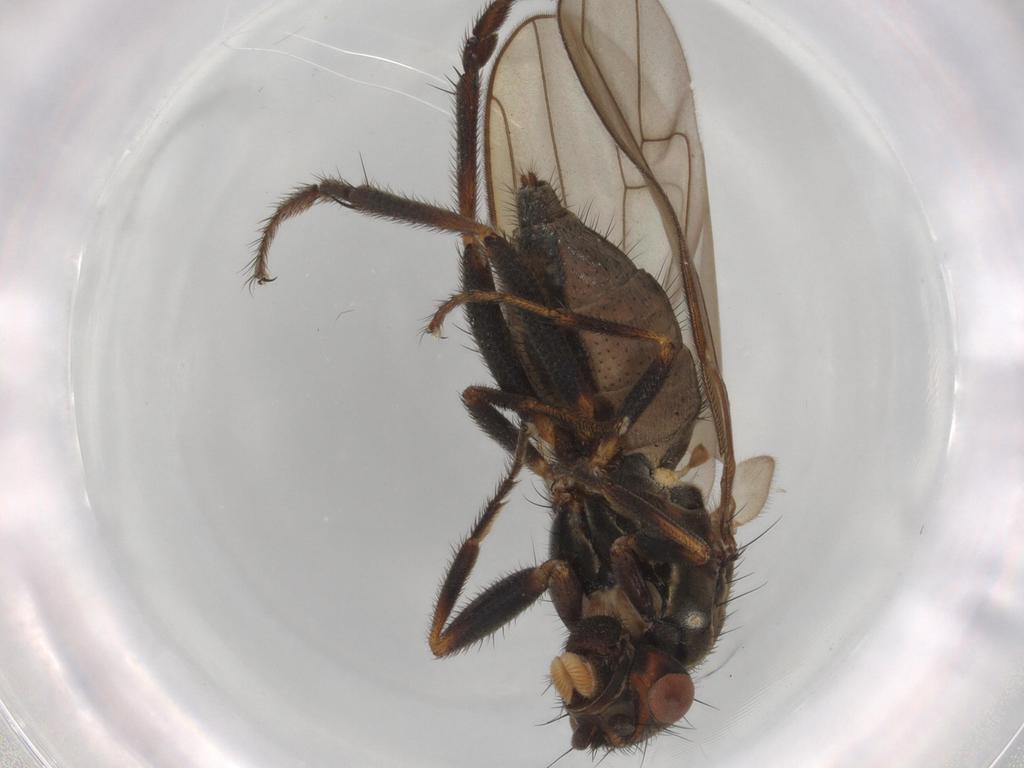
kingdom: Animalia
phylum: Arthropoda
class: Insecta
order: Diptera
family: Sphaeroceridae
